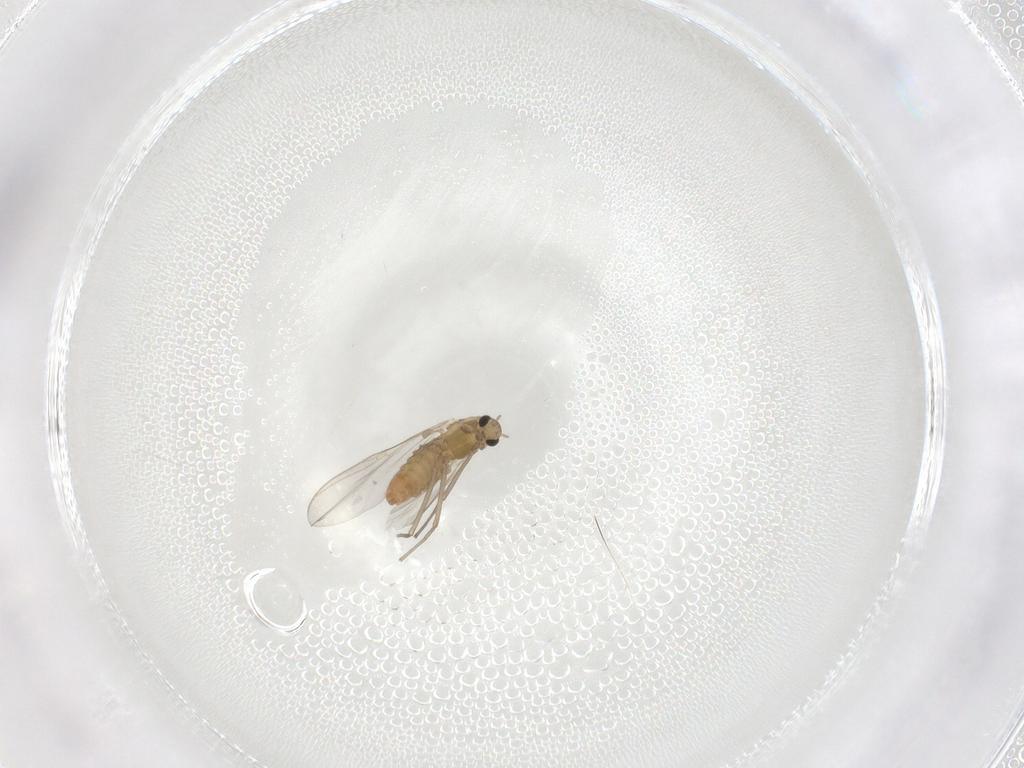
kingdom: Animalia
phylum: Arthropoda
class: Insecta
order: Diptera
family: Chironomidae
